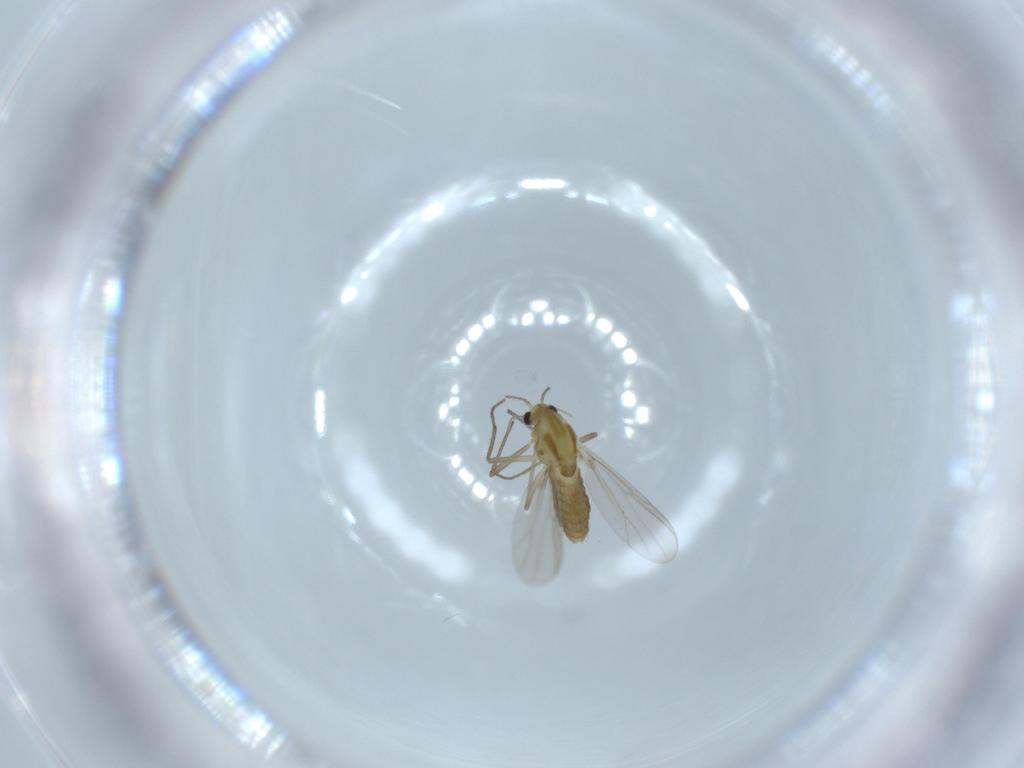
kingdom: Animalia
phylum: Arthropoda
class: Insecta
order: Diptera
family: Chironomidae
